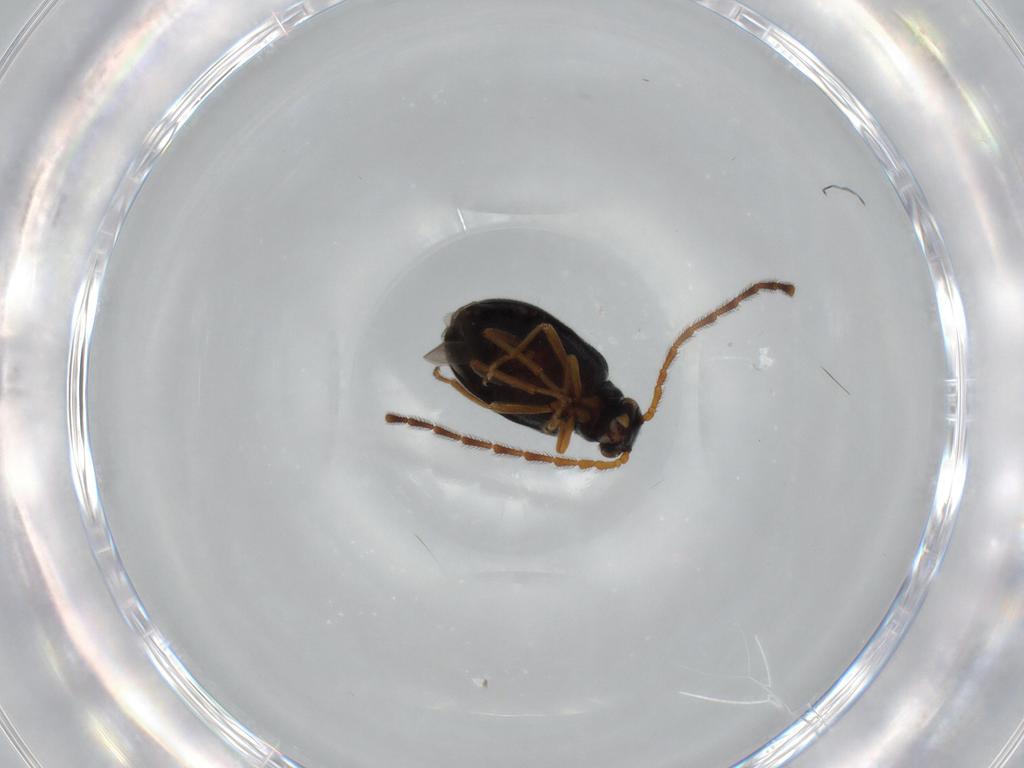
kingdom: Animalia
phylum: Arthropoda
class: Insecta
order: Coleoptera
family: Aderidae
